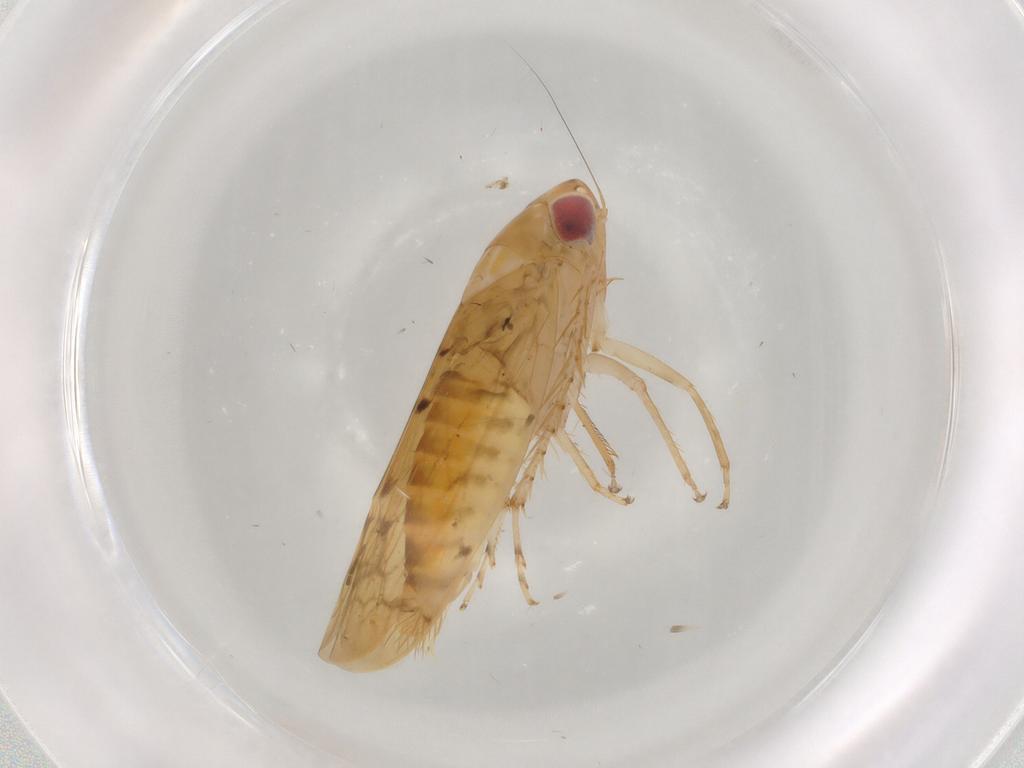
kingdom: Animalia
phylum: Arthropoda
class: Insecta
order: Hemiptera
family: Cicadellidae
